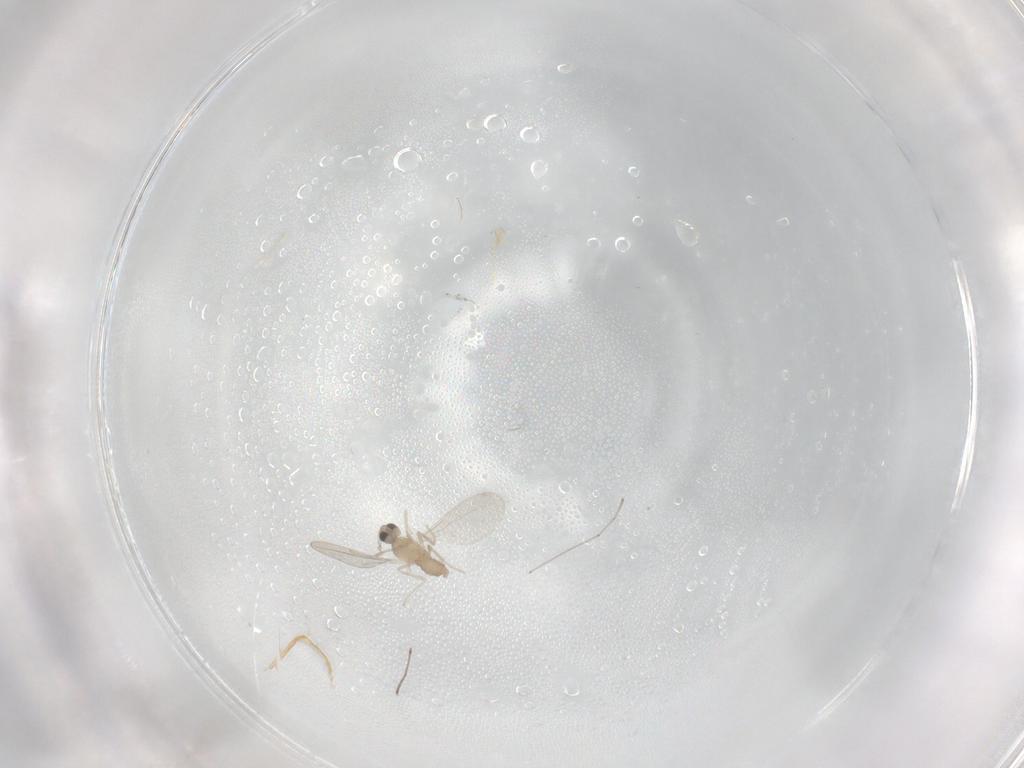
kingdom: Animalia
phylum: Arthropoda
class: Insecta
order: Diptera
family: Cecidomyiidae
